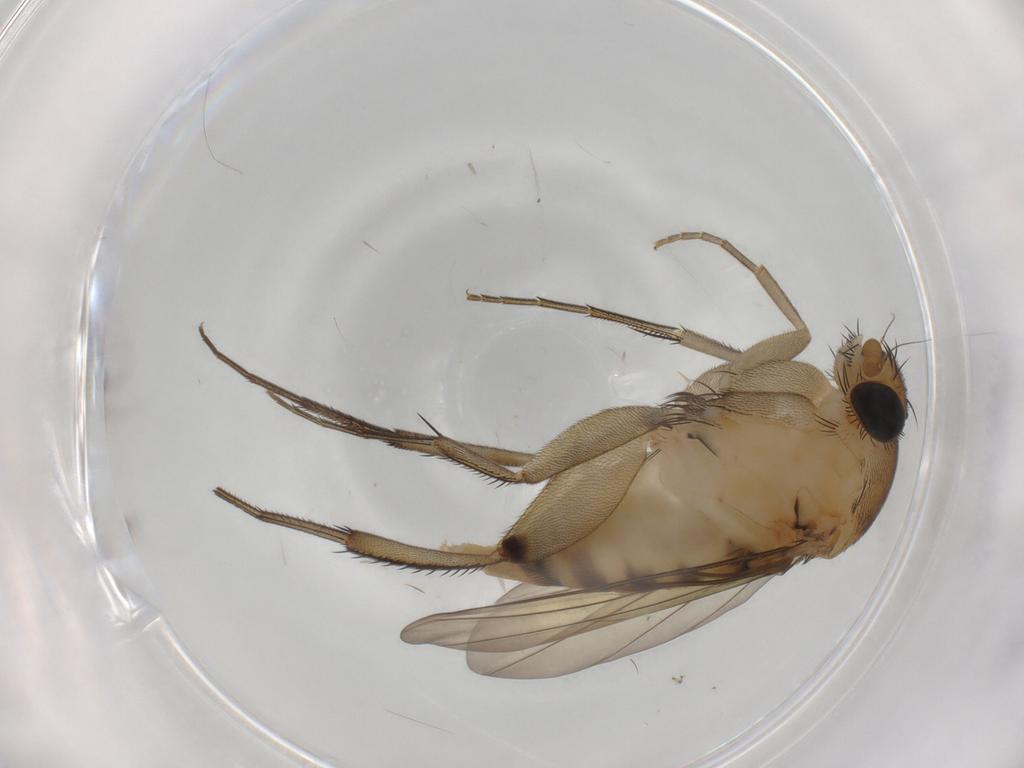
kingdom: Animalia
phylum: Arthropoda
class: Insecta
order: Diptera
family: Phoridae
